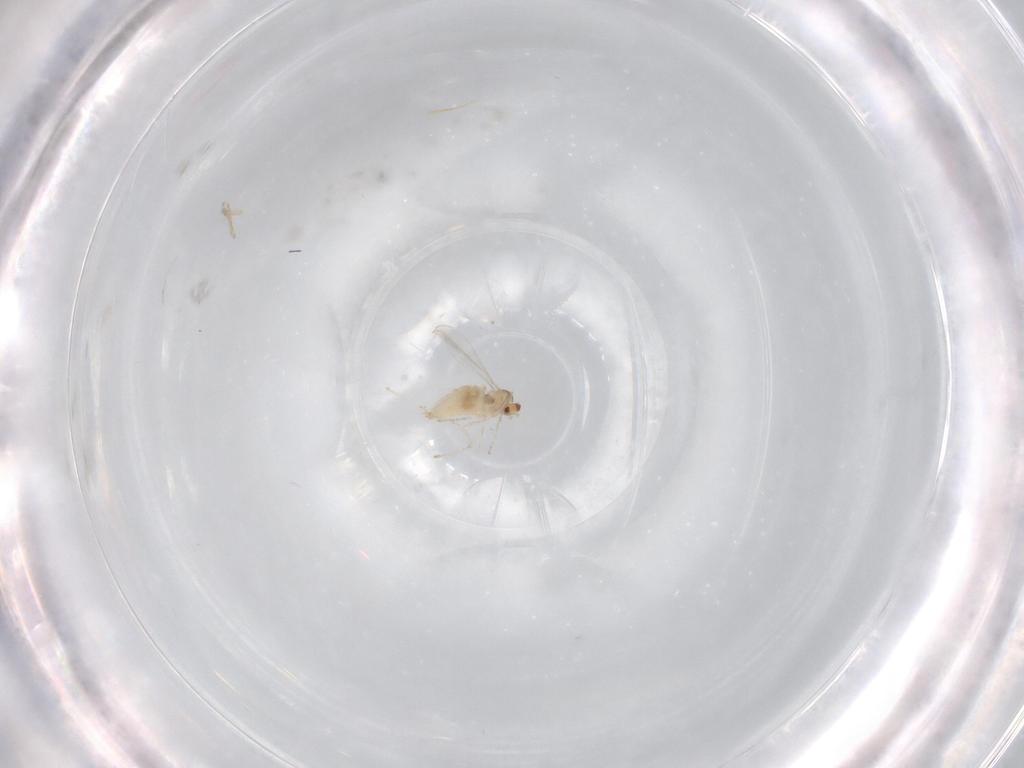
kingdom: Animalia
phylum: Arthropoda
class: Insecta
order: Diptera
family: Cecidomyiidae
